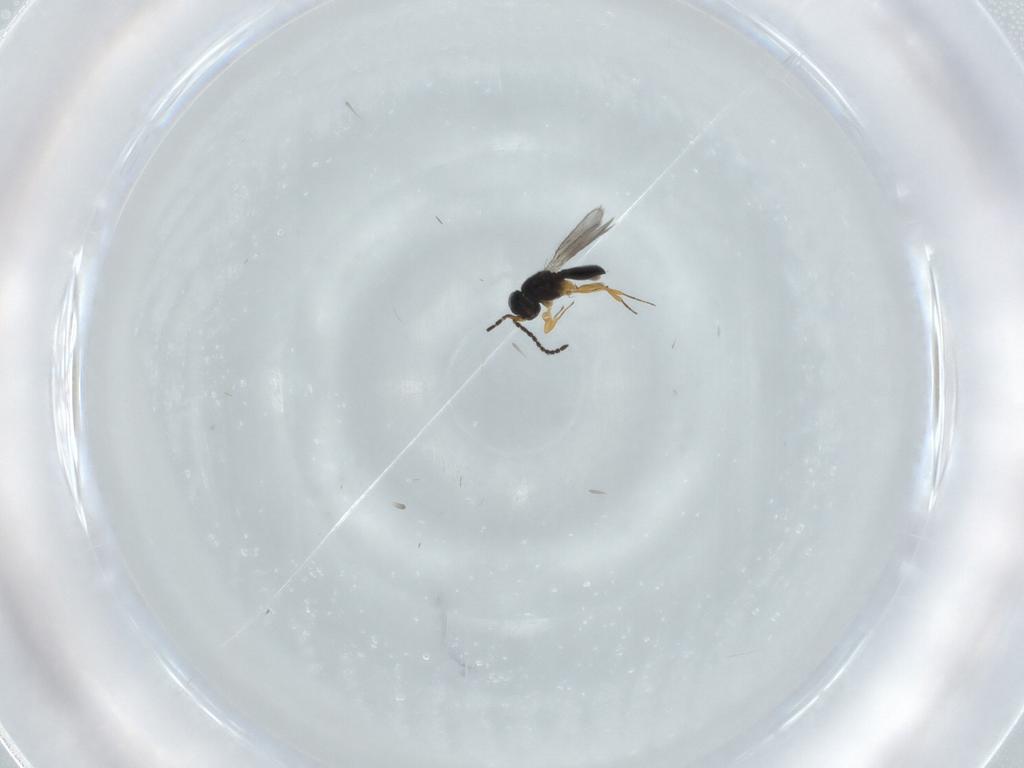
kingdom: Animalia
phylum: Arthropoda
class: Insecta
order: Hymenoptera
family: Scelionidae
